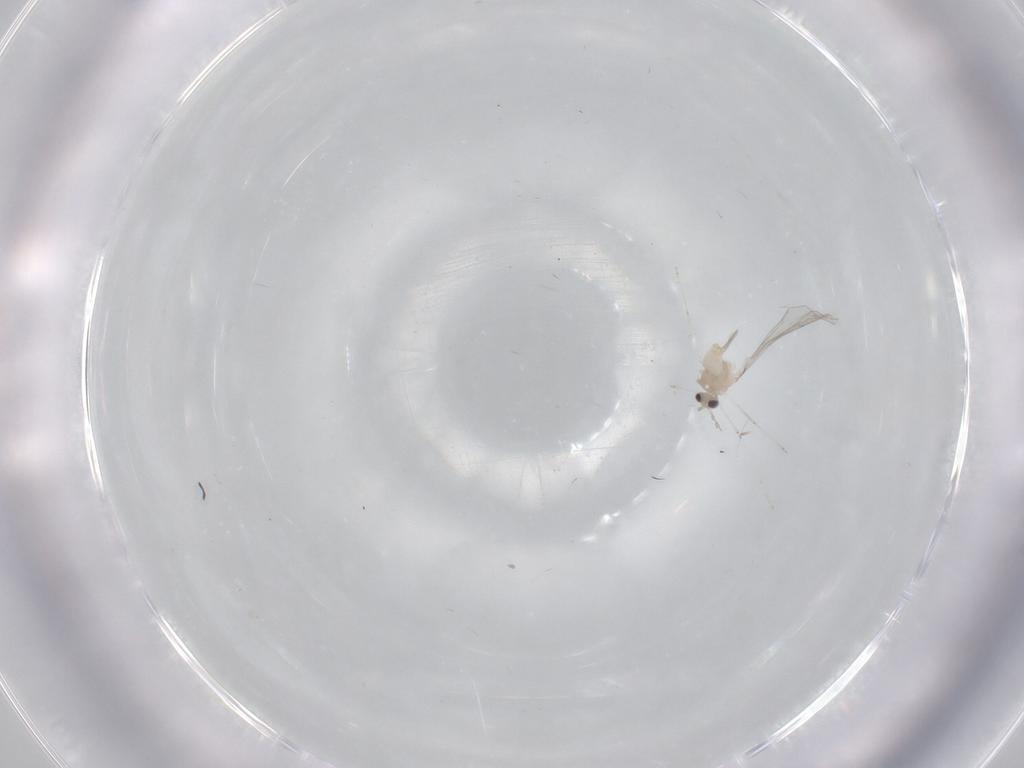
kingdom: Animalia
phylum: Arthropoda
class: Insecta
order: Diptera
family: Cecidomyiidae
